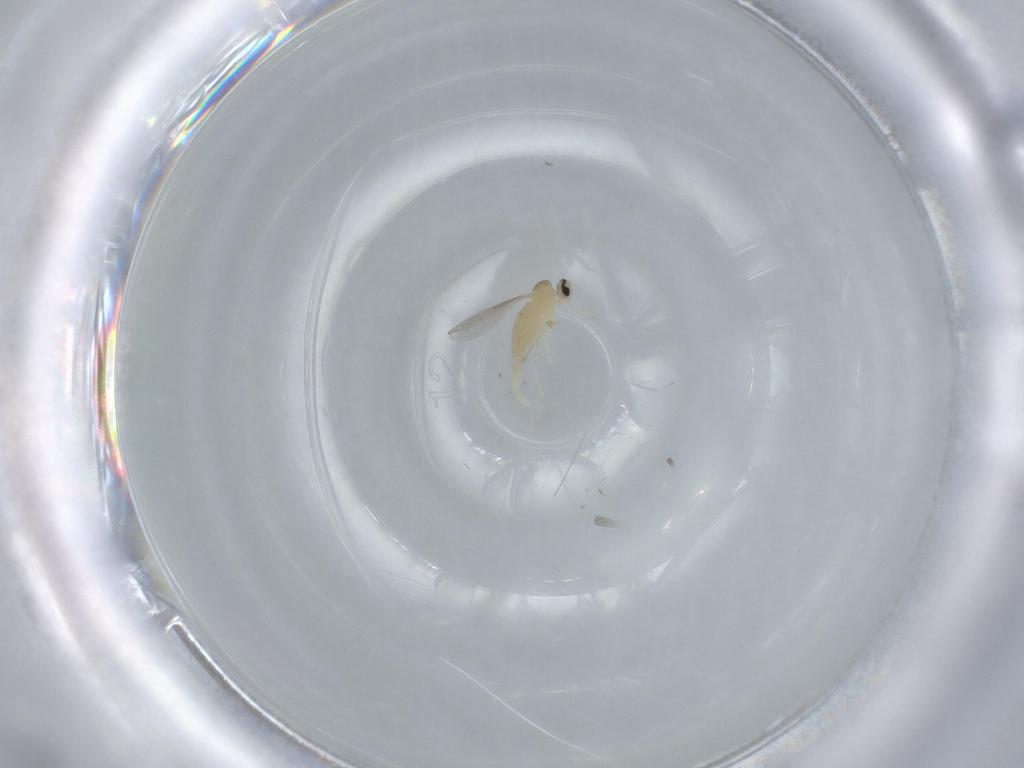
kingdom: Animalia
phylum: Arthropoda
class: Insecta
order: Diptera
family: Cecidomyiidae
